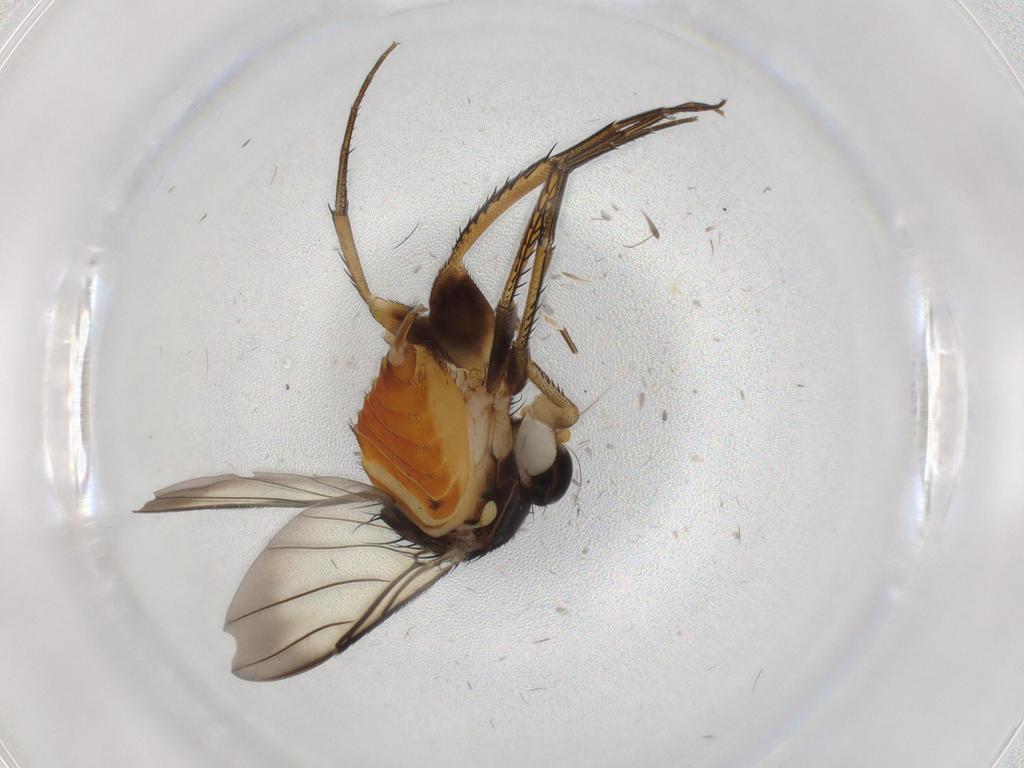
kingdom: Animalia
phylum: Arthropoda
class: Insecta
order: Diptera
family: Phoridae
